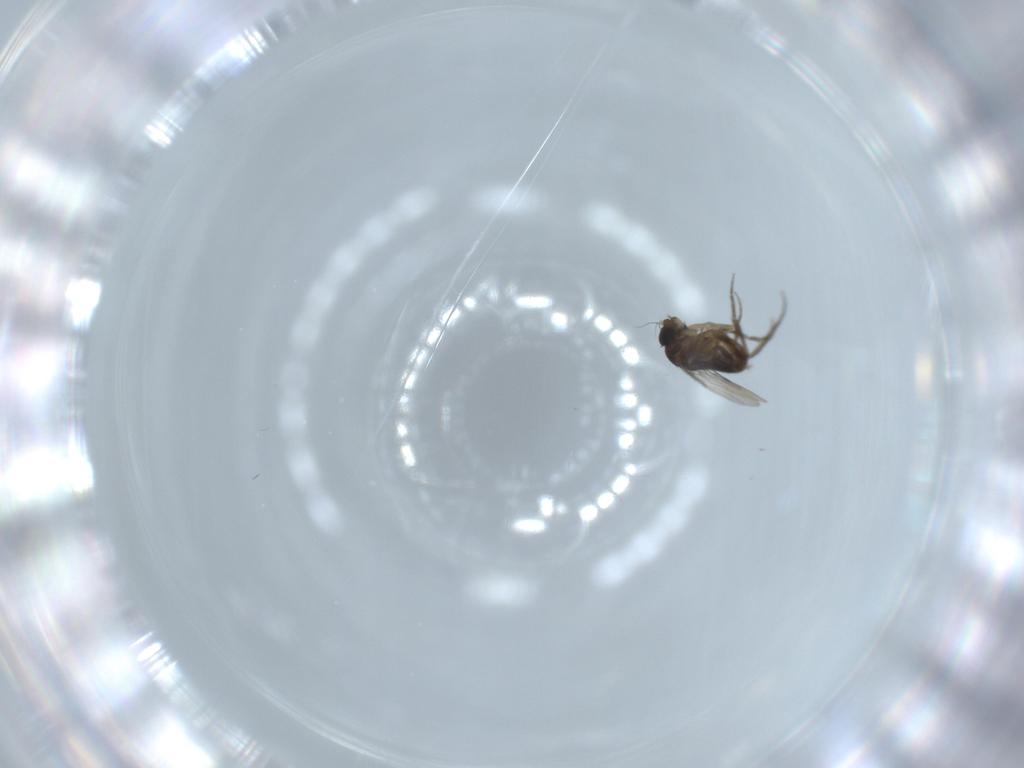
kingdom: Animalia
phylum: Arthropoda
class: Insecta
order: Diptera
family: Phoridae
